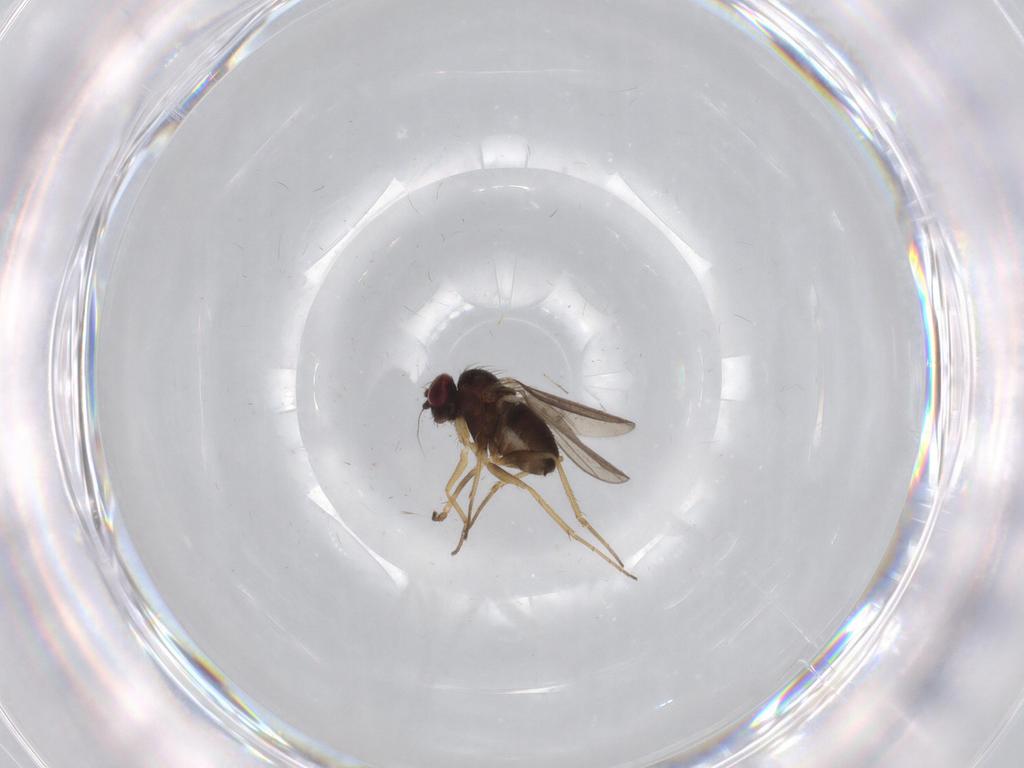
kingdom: Animalia
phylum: Arthropoda
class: Insecta
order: Diptera
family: Dolichopodidae
